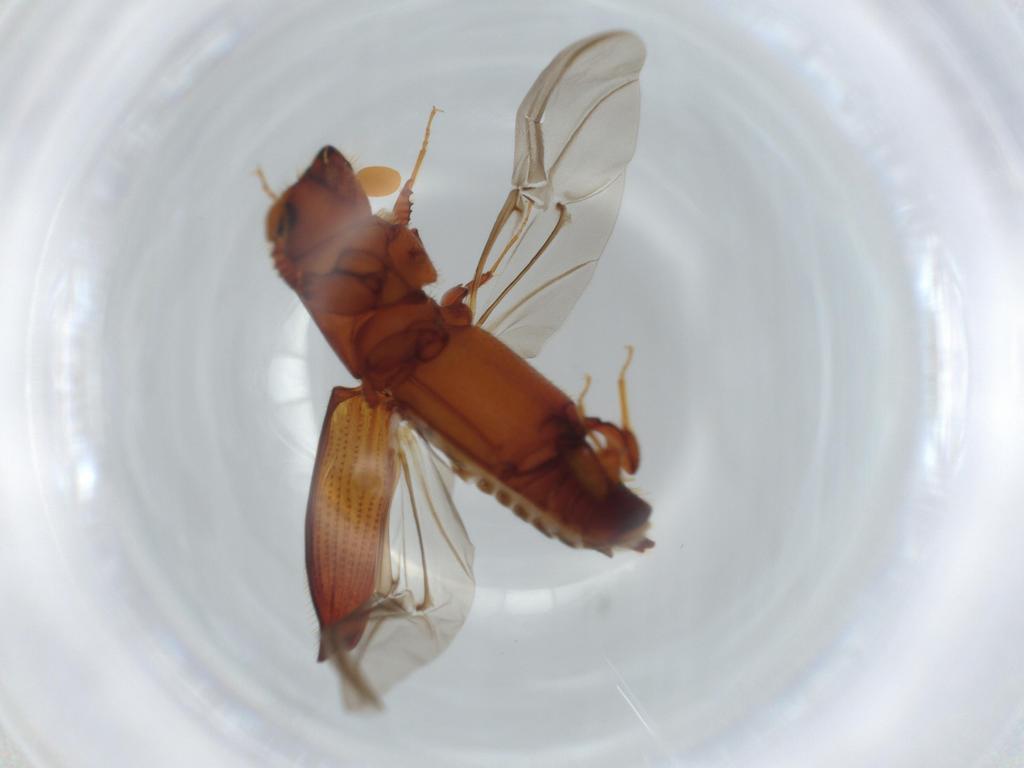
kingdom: Animalia
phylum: Arthropoda
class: Insecta
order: Coleoptera
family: Curculionidae
